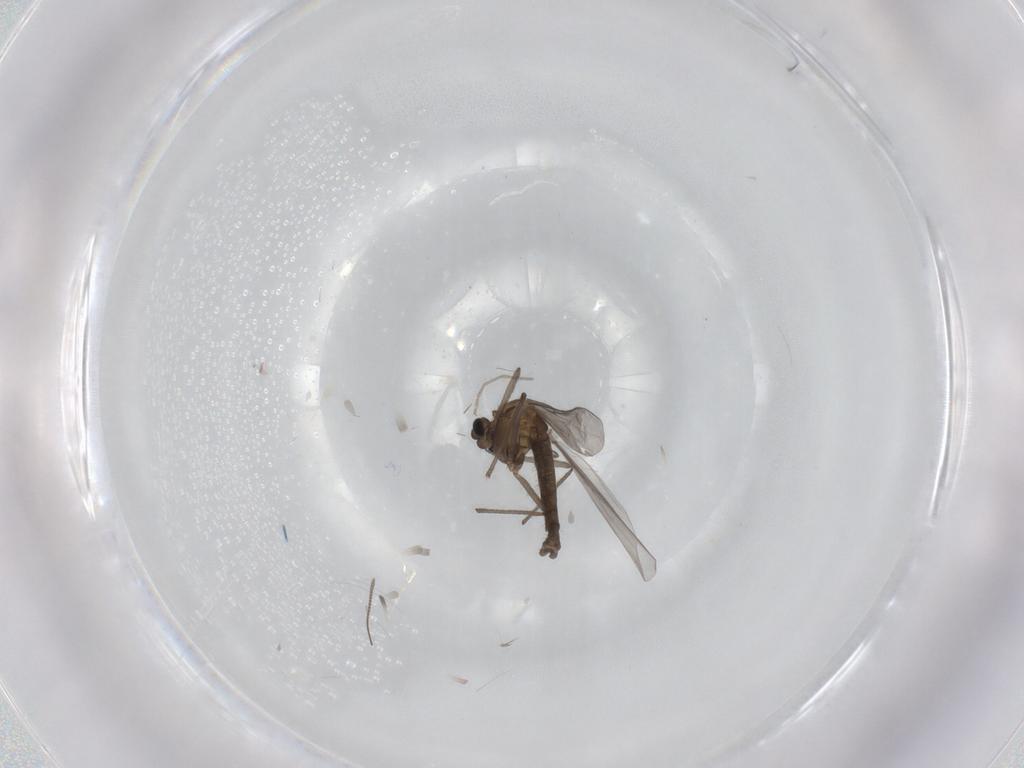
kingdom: Animalia
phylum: Arthropoda
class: Insecta
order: Diptera
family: Chironomidae
